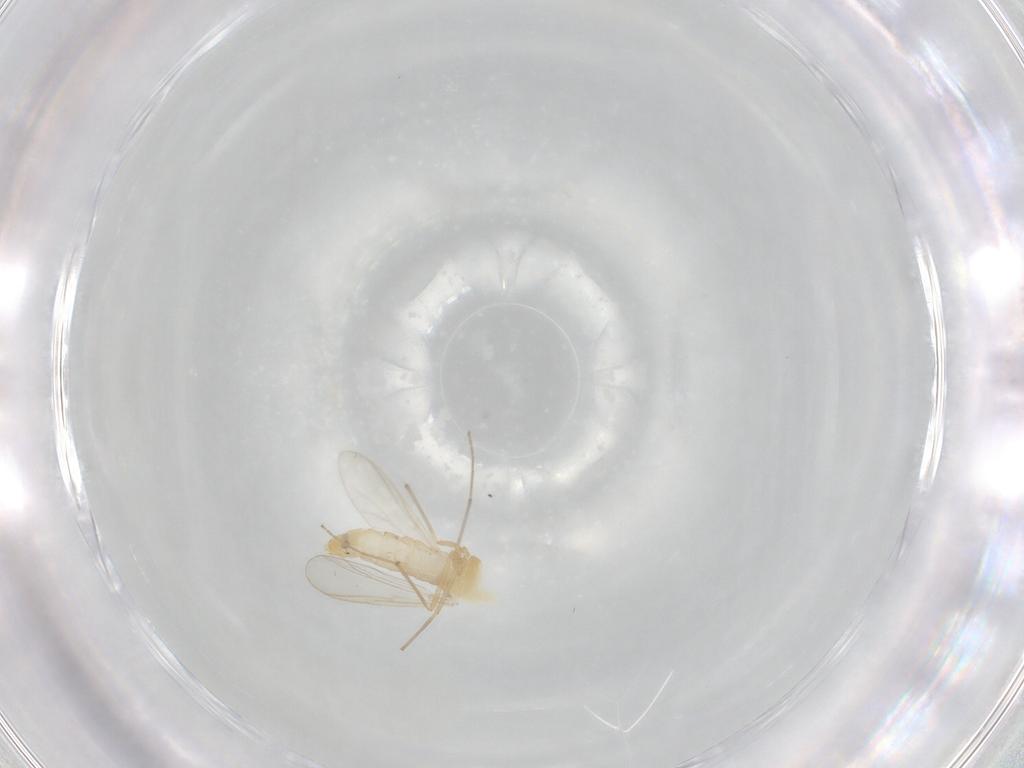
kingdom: Animalia
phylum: Arthropoda
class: Insecta
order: Diptera
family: Chironomidae
